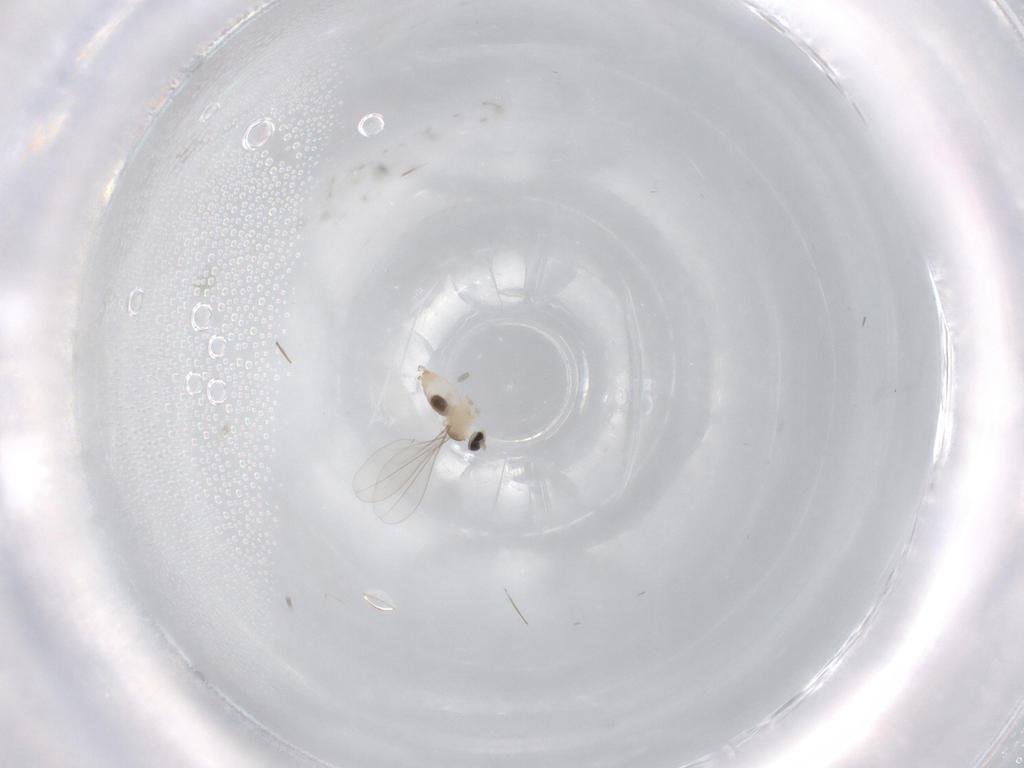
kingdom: Animalia
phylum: Arthropoda
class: Insecta
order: Diptera
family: Cecidomyiidae
